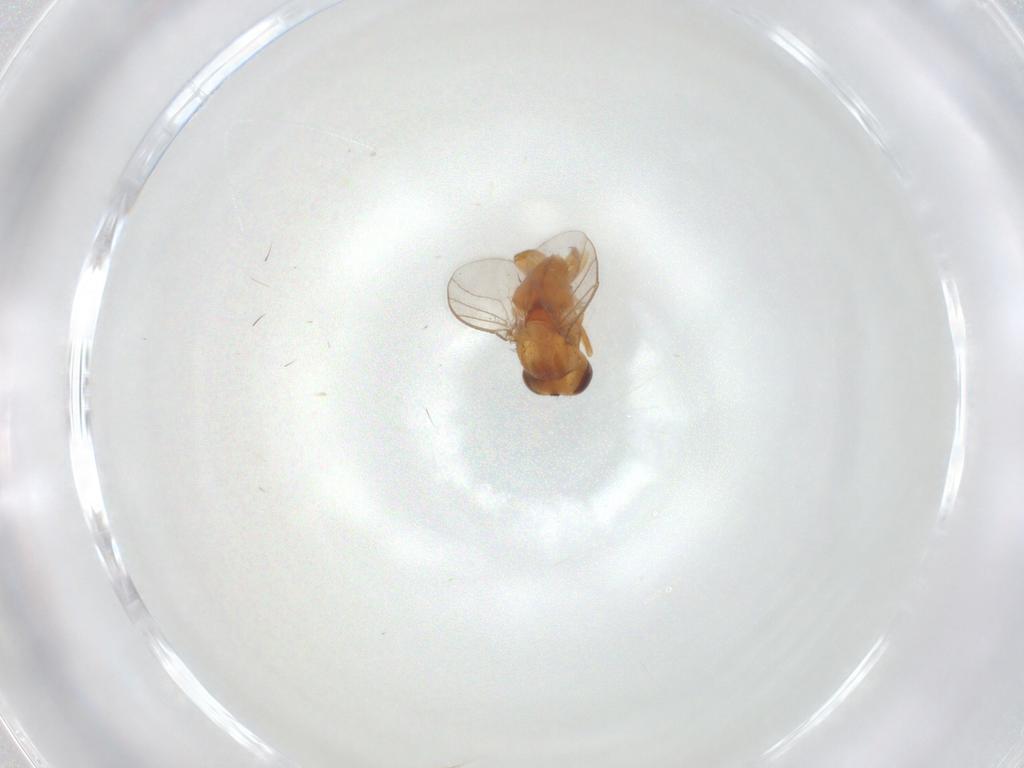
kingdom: Animalia
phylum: Arthropoda
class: Insecta
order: Diptera
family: Chloropidae
